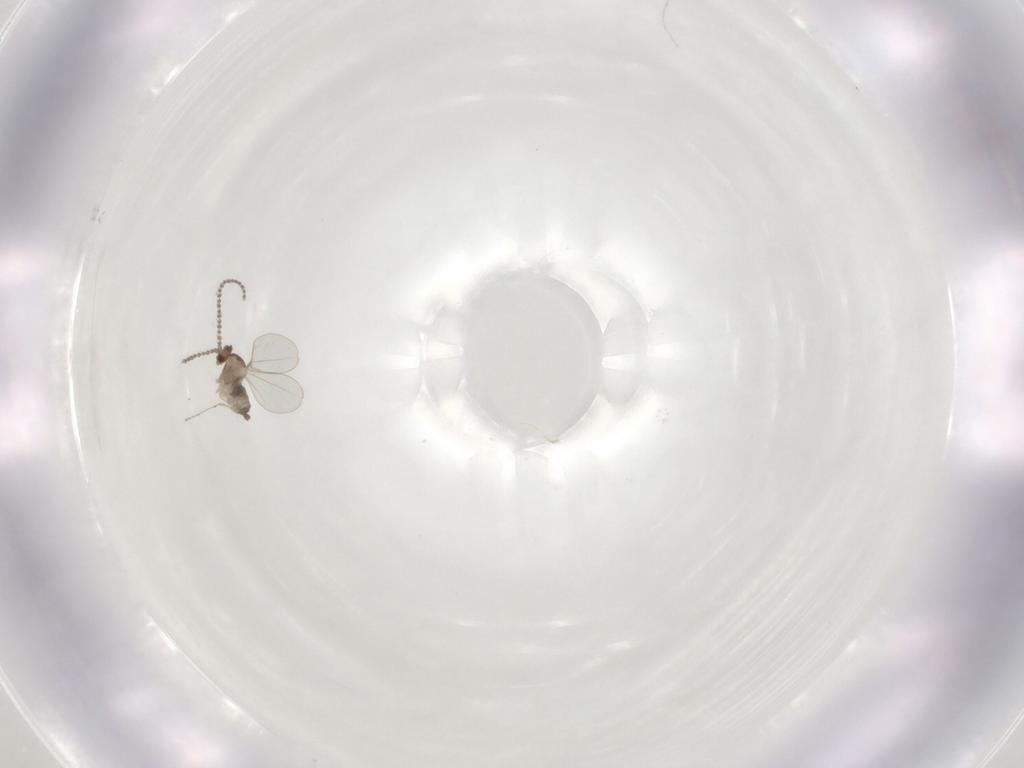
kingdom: Animalia
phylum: Arthropoda
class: Insecta
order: Diptera
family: Cecidomyiidae
